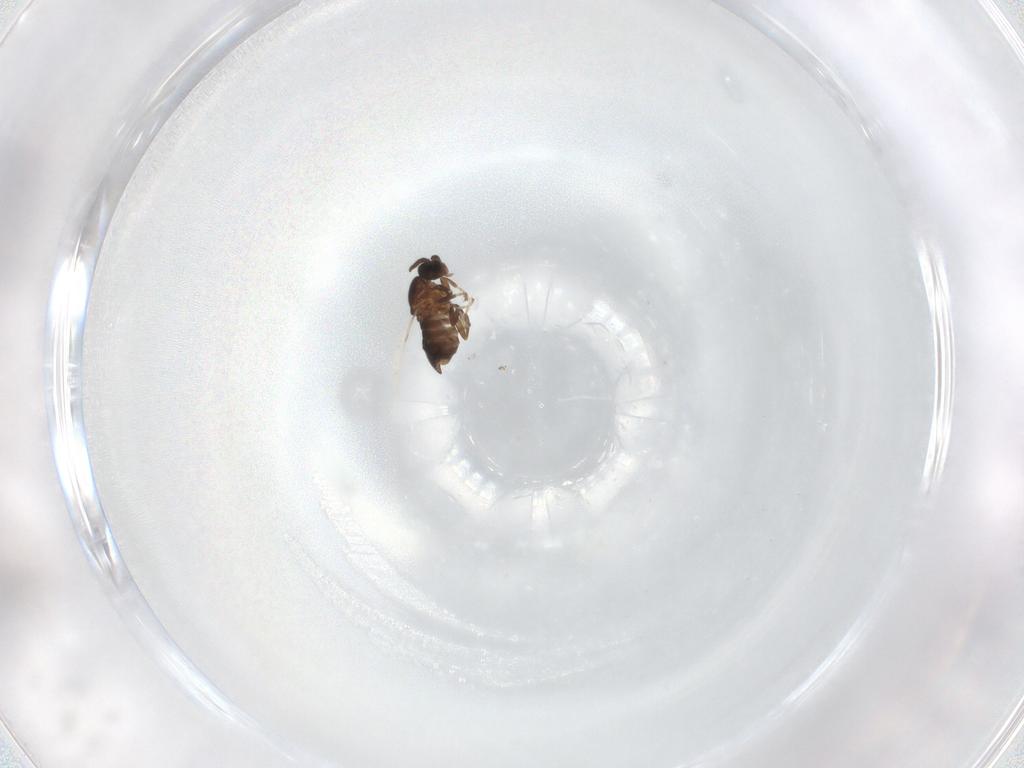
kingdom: Animalia
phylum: Arthropoda
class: Insecta
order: Diptera
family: Scatopsidae
